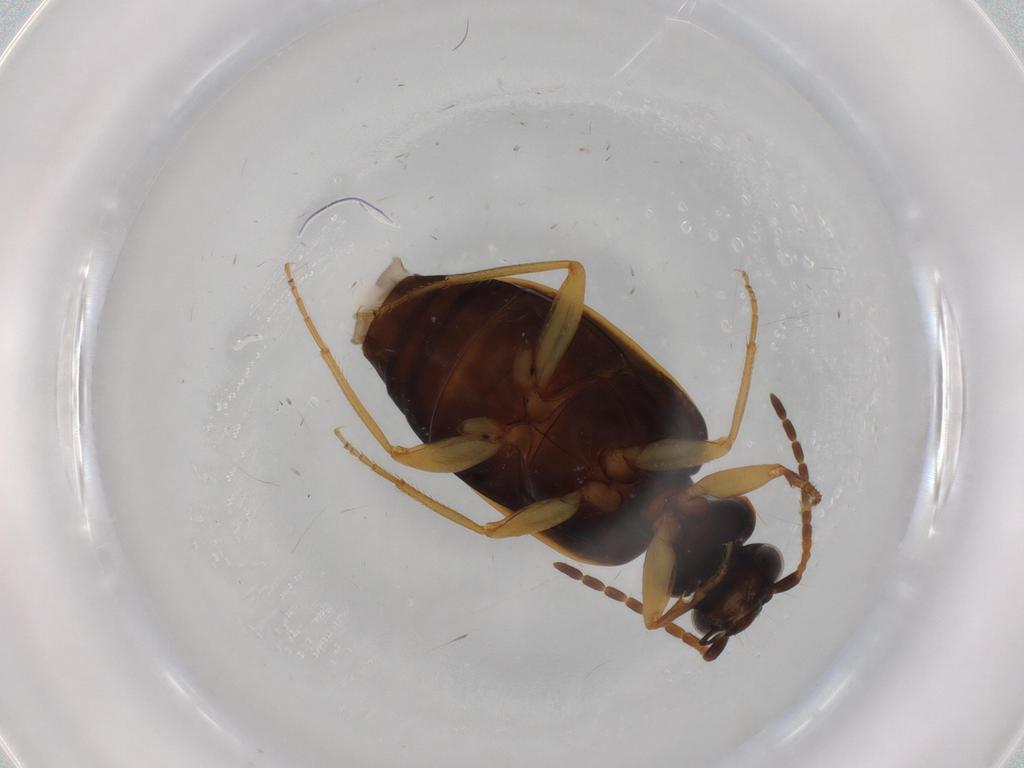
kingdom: Animalia
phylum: Arthropoda
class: Insecta
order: Coleoptera
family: Carabidae
